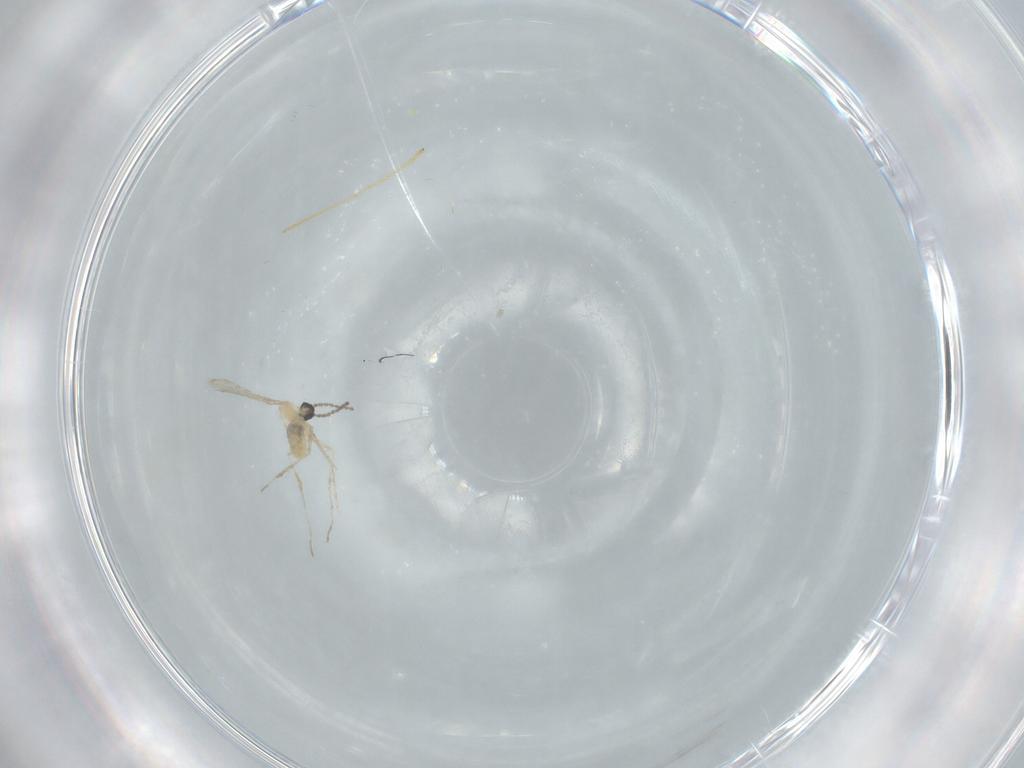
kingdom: Animalia
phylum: Arthropoda
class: Insecta
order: Diptera
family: Limoniidae
